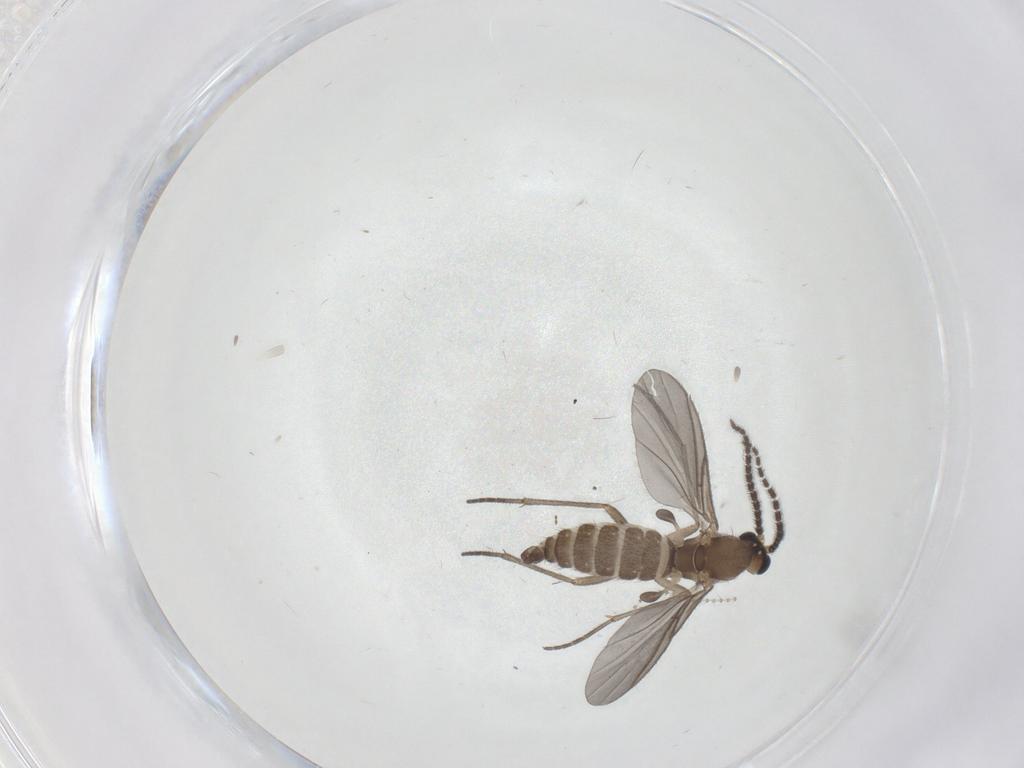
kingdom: Animalia
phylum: Arthropoda
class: Insecta
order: Diptera
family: Sciaridae
